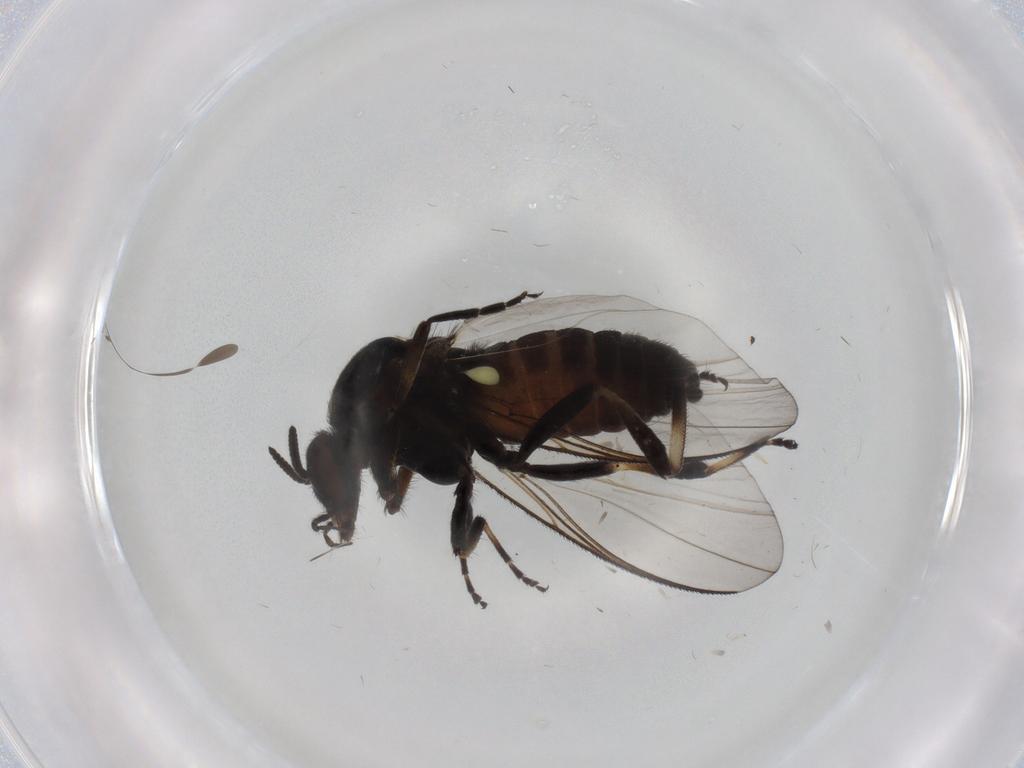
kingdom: Animalia
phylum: Arthropoda
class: Insecta
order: Diptera
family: Phoridae
